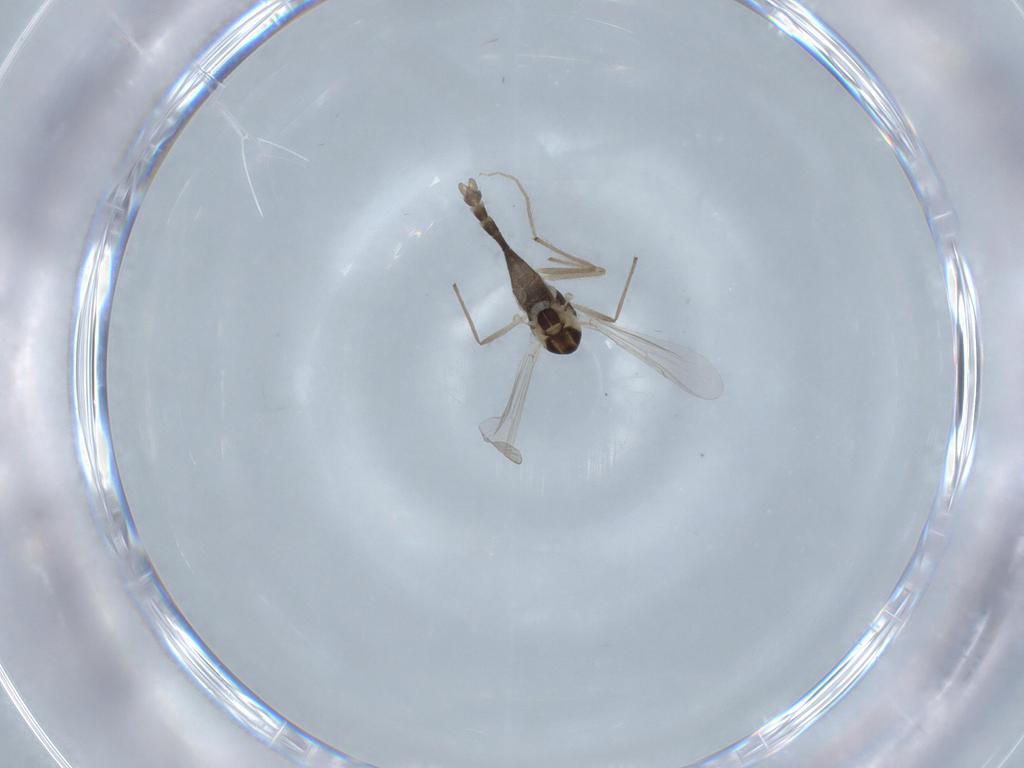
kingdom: Animalia
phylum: Arthropoda
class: Insecta
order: Diptera
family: Chironomidae
